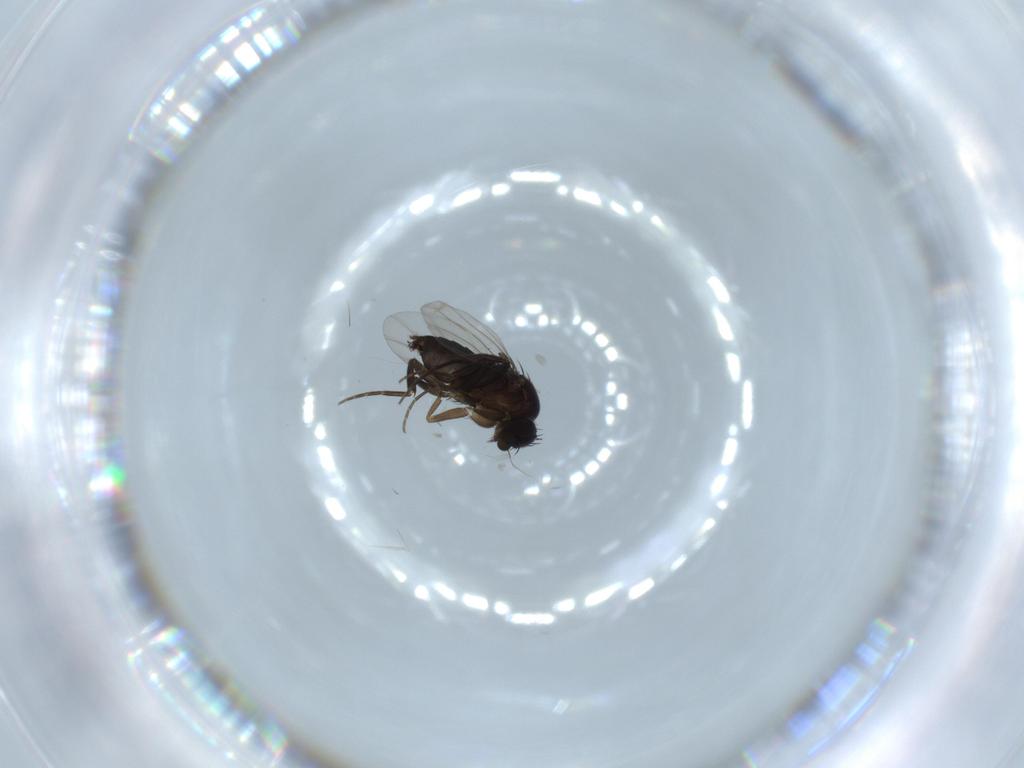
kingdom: Animalia
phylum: Arthropoda
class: Insecta
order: Diptera
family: Phoridae
